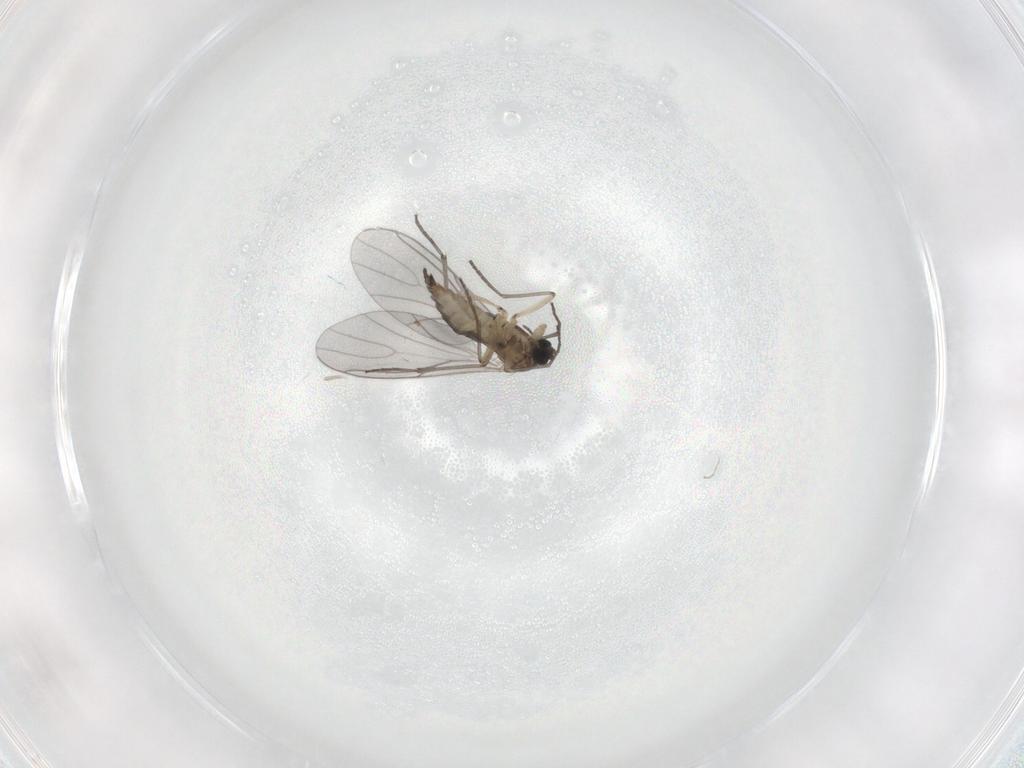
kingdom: Animalia
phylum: Arthropoda
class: Insecta
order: Diptera
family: Sciaridae
